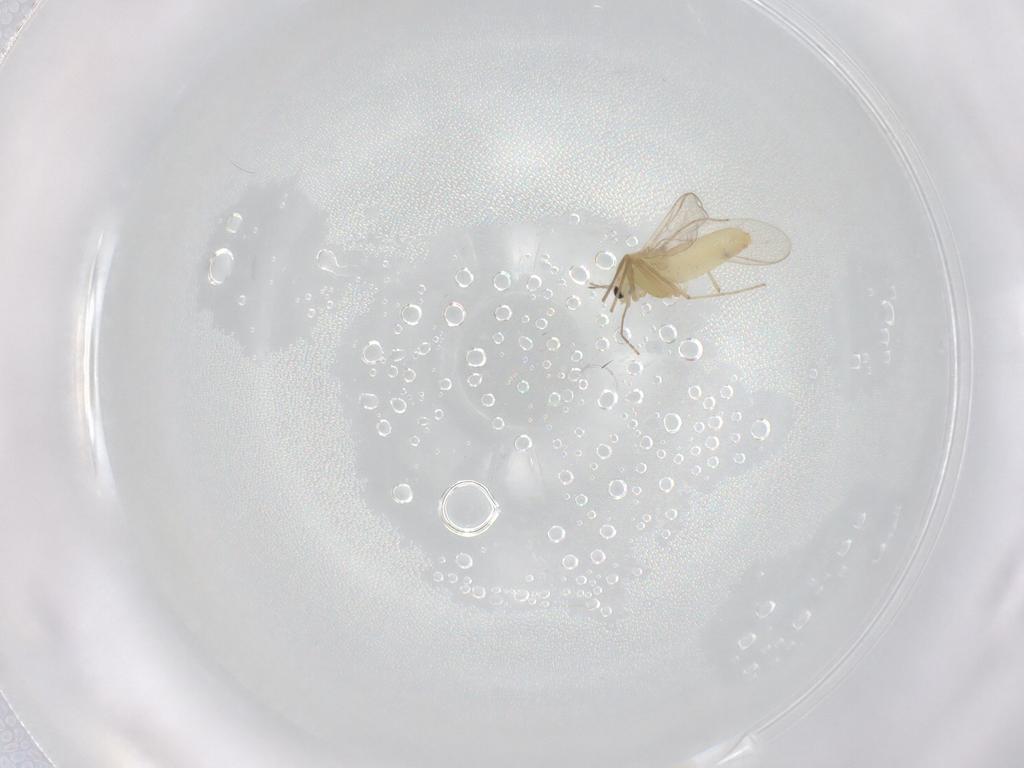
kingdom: Animalia
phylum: Arthropoda
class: Insecta
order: Diptera
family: Chironomidae
